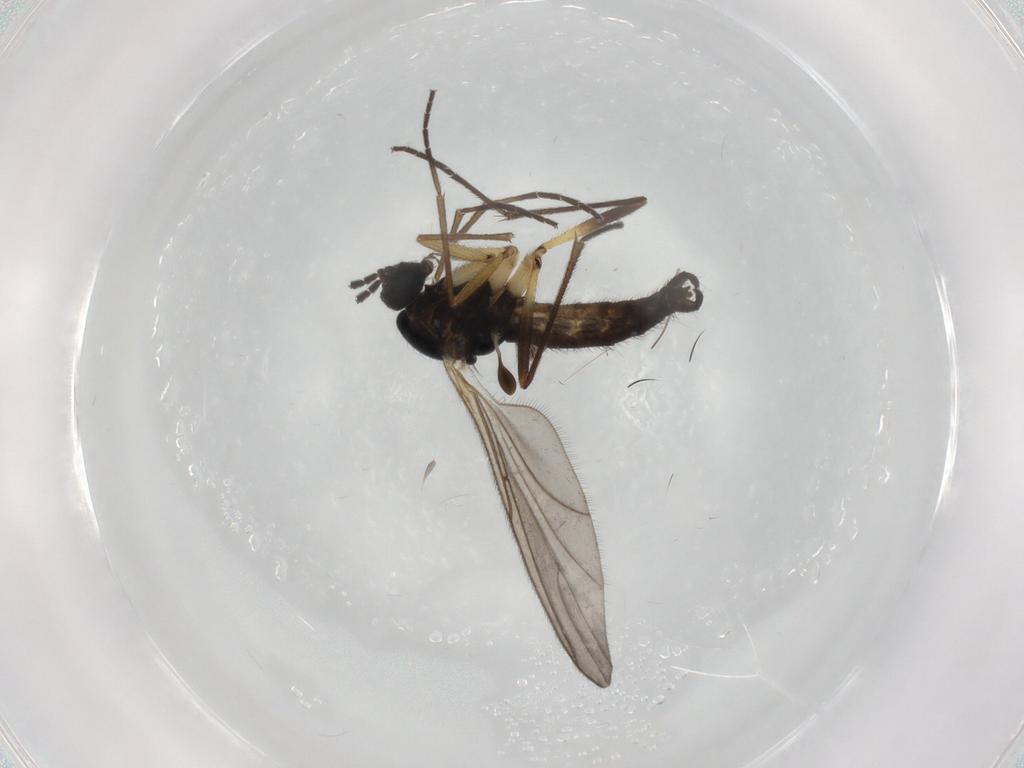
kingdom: Animalia
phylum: Arthropoda
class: Insecta
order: Diptera
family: Sciaridae
